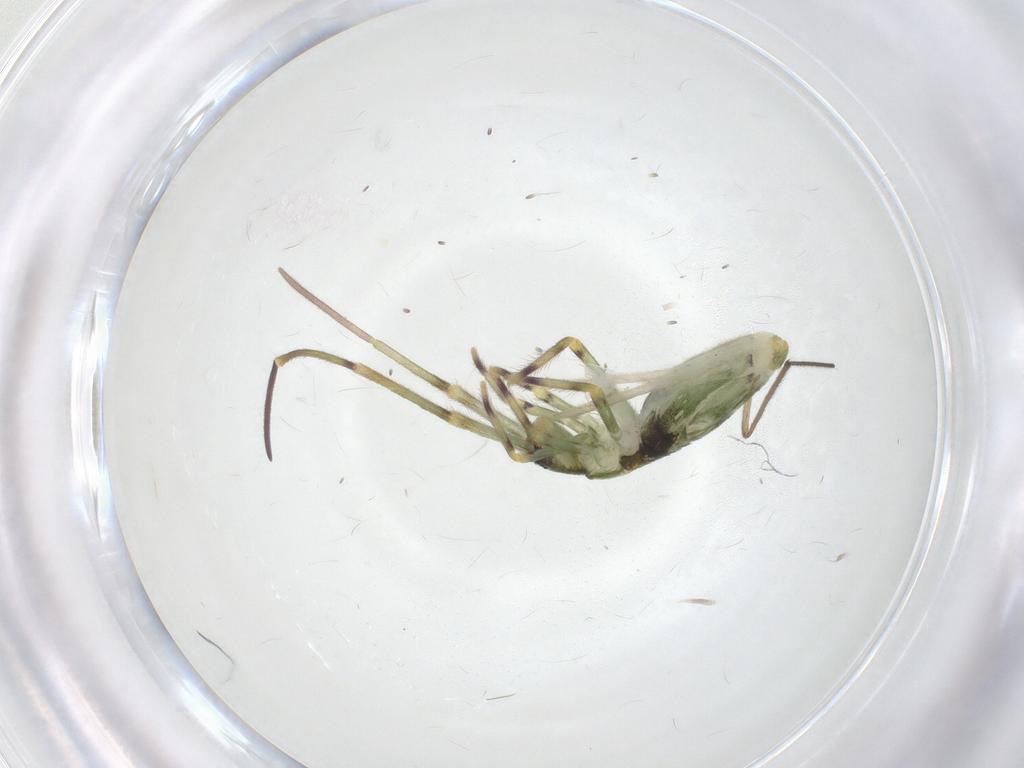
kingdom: Animalia
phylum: Arthropoda
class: Collembola
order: Entomobryomorpha
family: Entomobryidae
